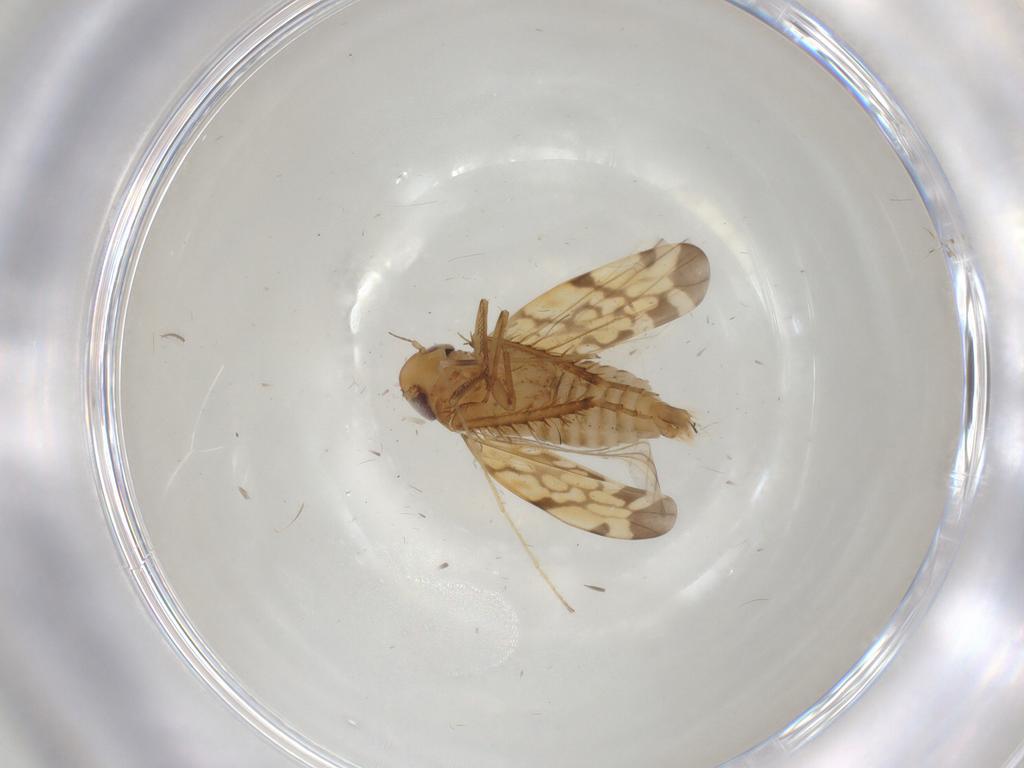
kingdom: Animalia
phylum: Arthropoda
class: Insecta
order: Hemiptera
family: Cicadellidae
